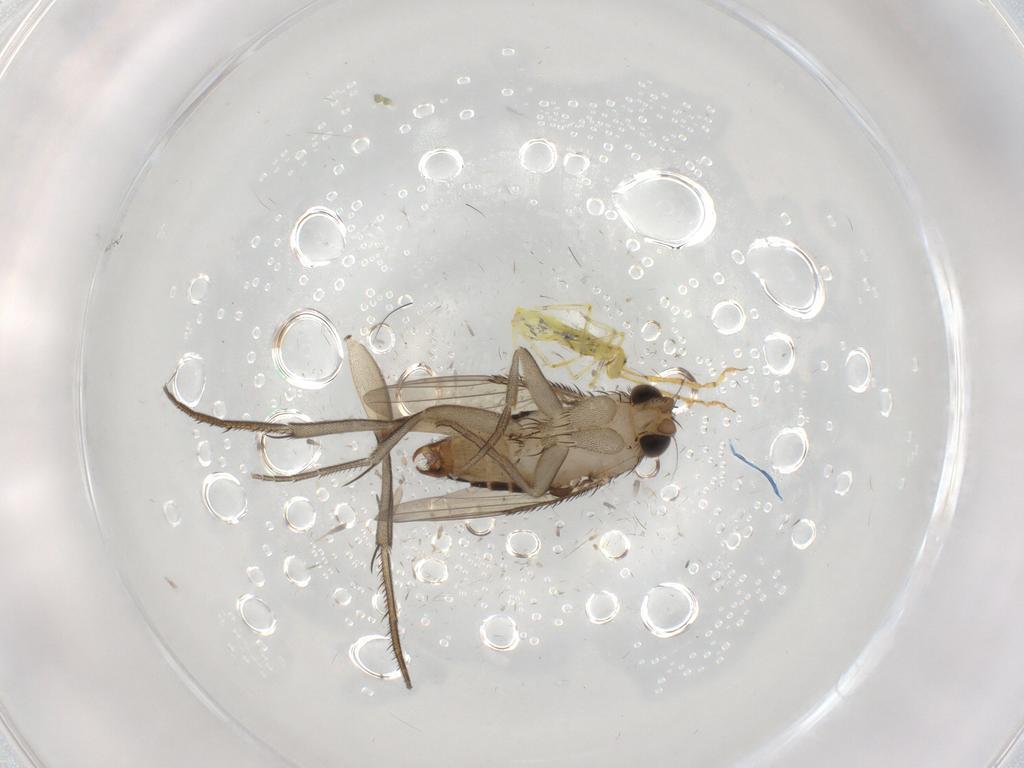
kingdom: Animalia
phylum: Arthropoda
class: Insecta
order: Diptera
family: Phoridae
